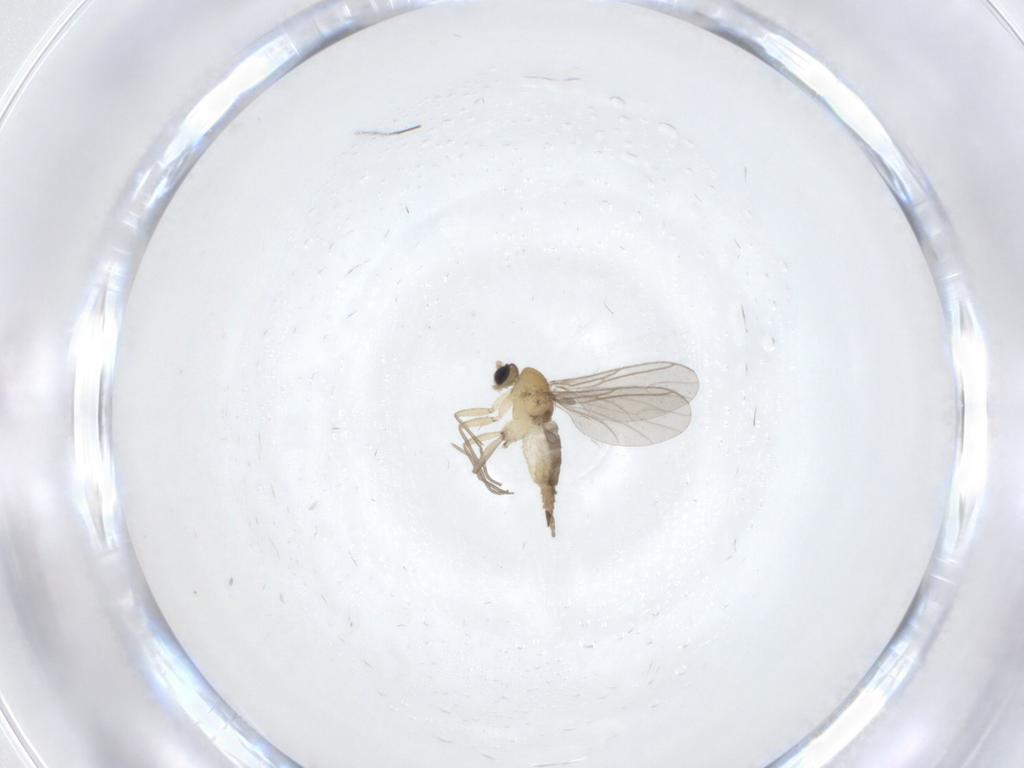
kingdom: Animalia
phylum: Arthropoda
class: Insecta
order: Diptera
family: Sciaridae
